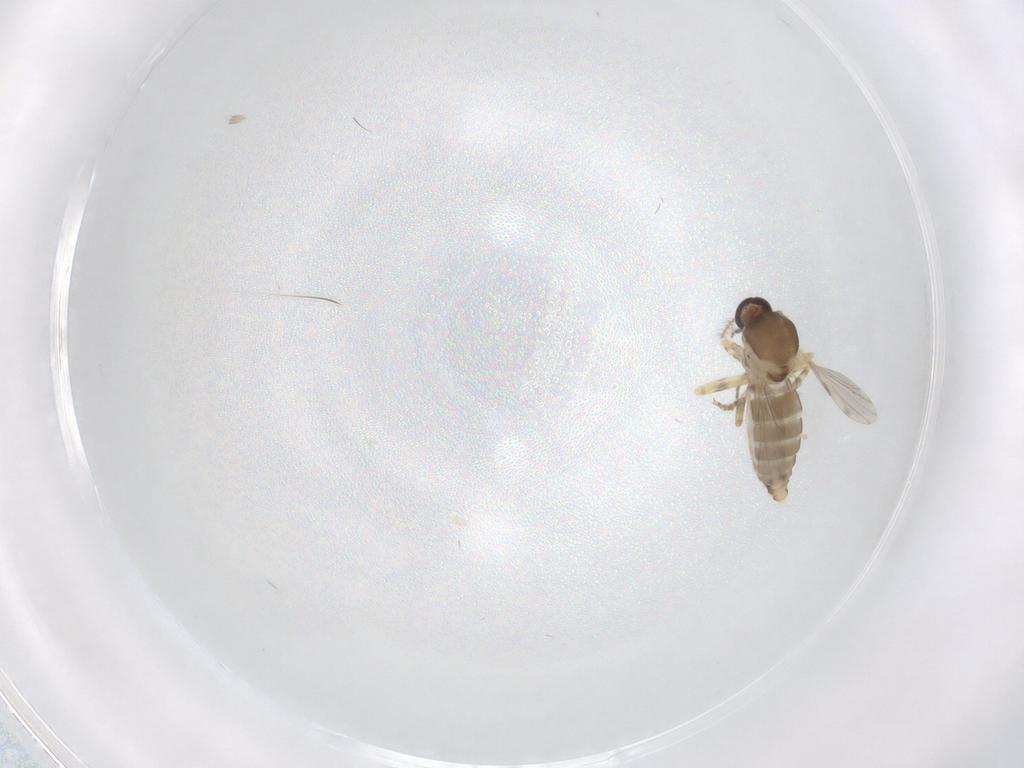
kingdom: Animalia
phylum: Arthropoda
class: Insecta
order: Diptera
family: Ceratopogonidae
